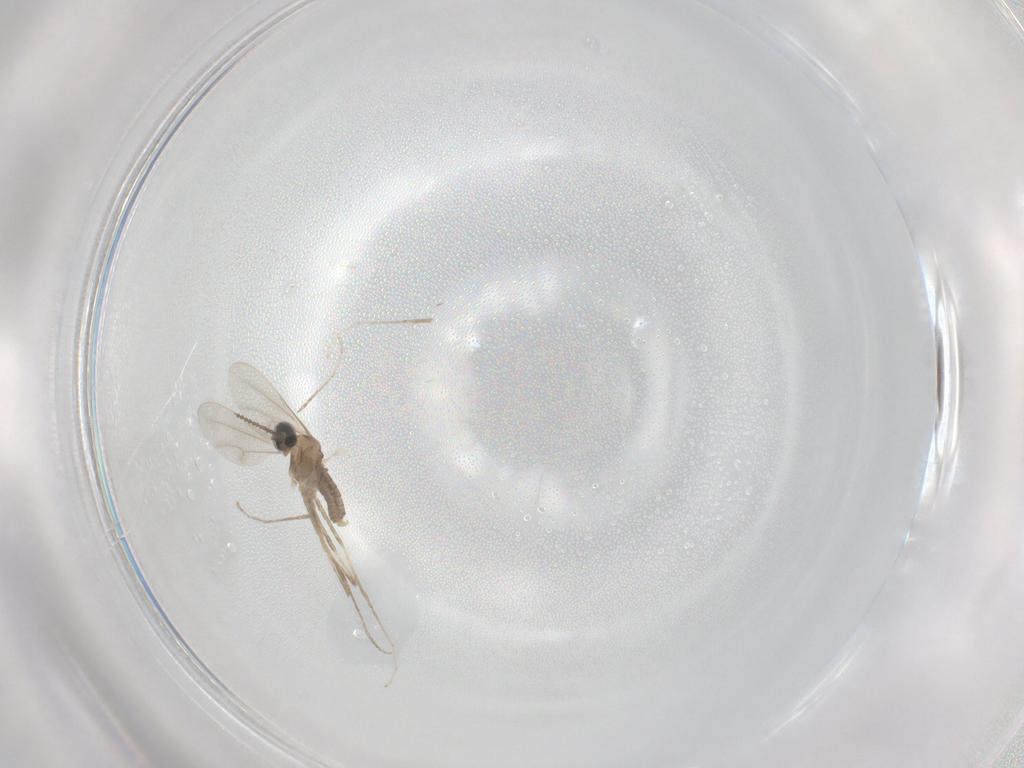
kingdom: Animalia
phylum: Arthropoda
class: Insecta
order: Diptera
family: Cecidomyiidae
